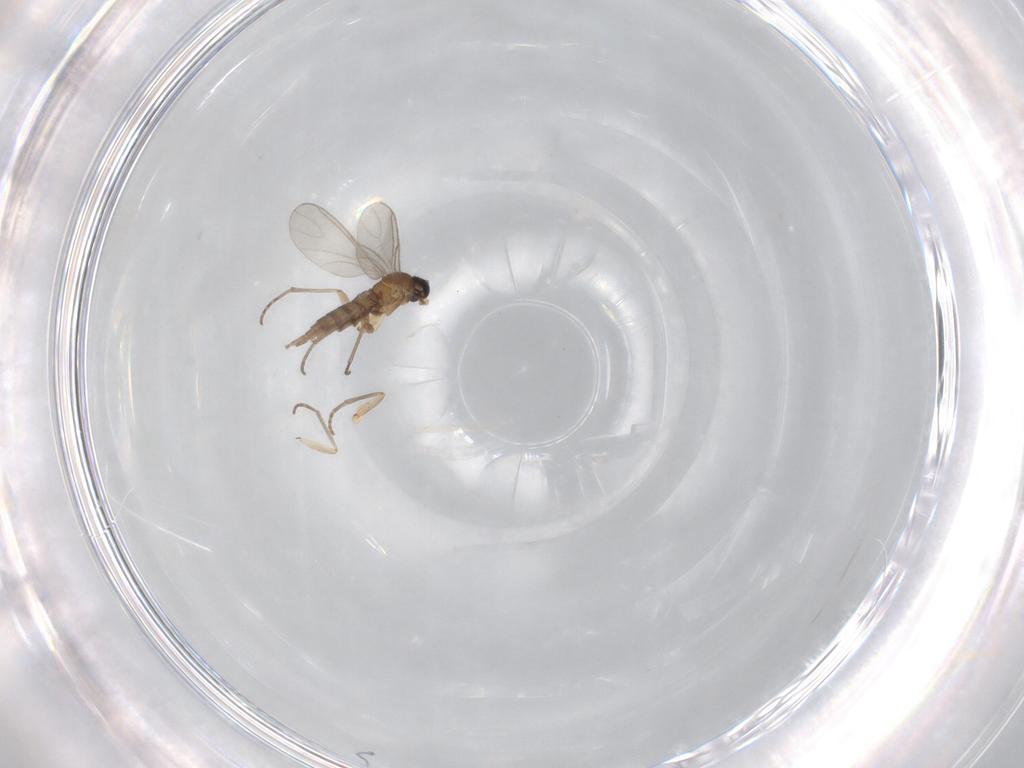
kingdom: Animalia
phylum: Arthropoda
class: Insecta
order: Diptera
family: Sciaridae
